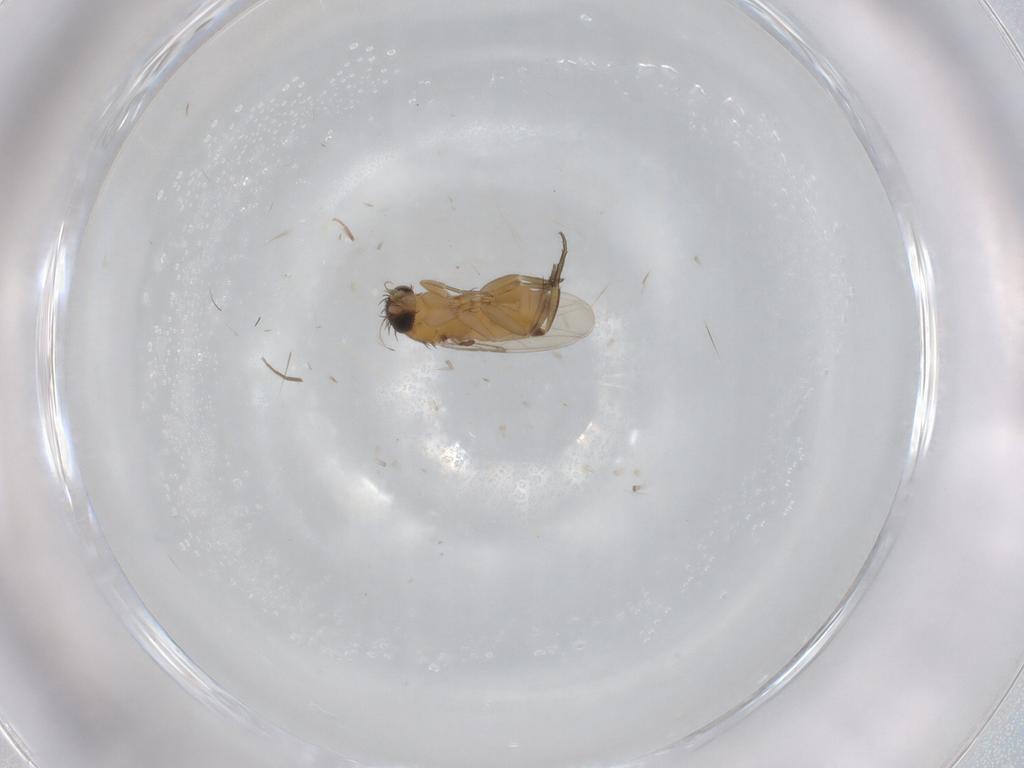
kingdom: Animalia
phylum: Arthropoda
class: Insecta
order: Diptera
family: Phoridae
